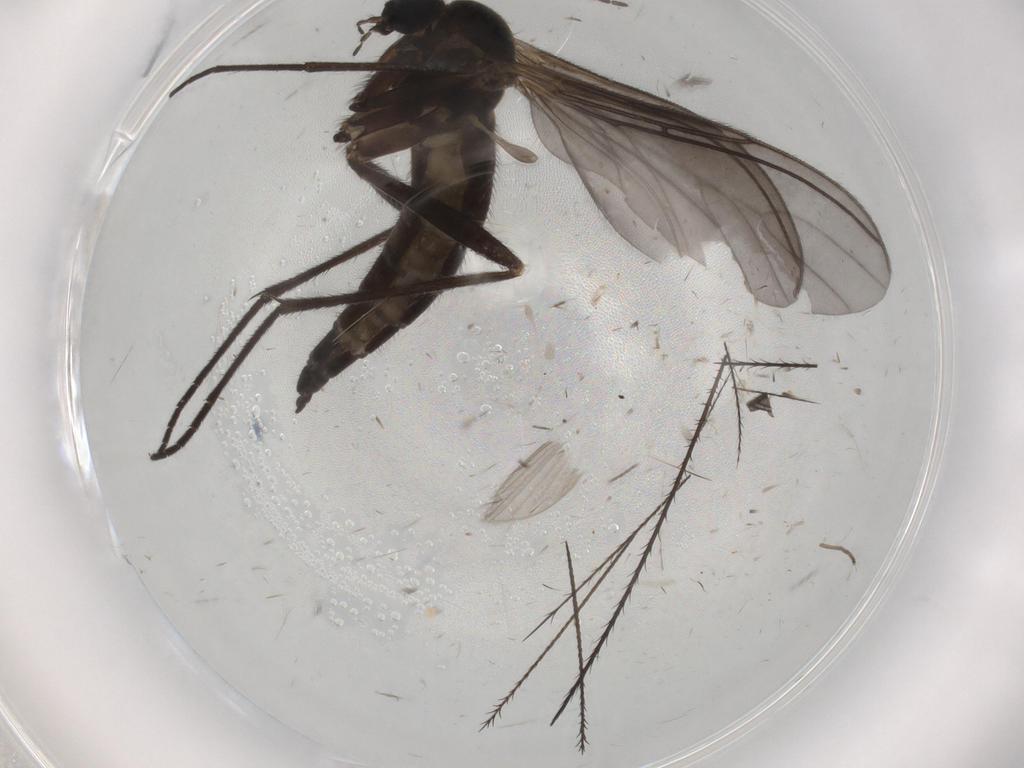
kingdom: Animalia
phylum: Arthropoda
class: Insecta
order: Diptera
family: Sciaridae
